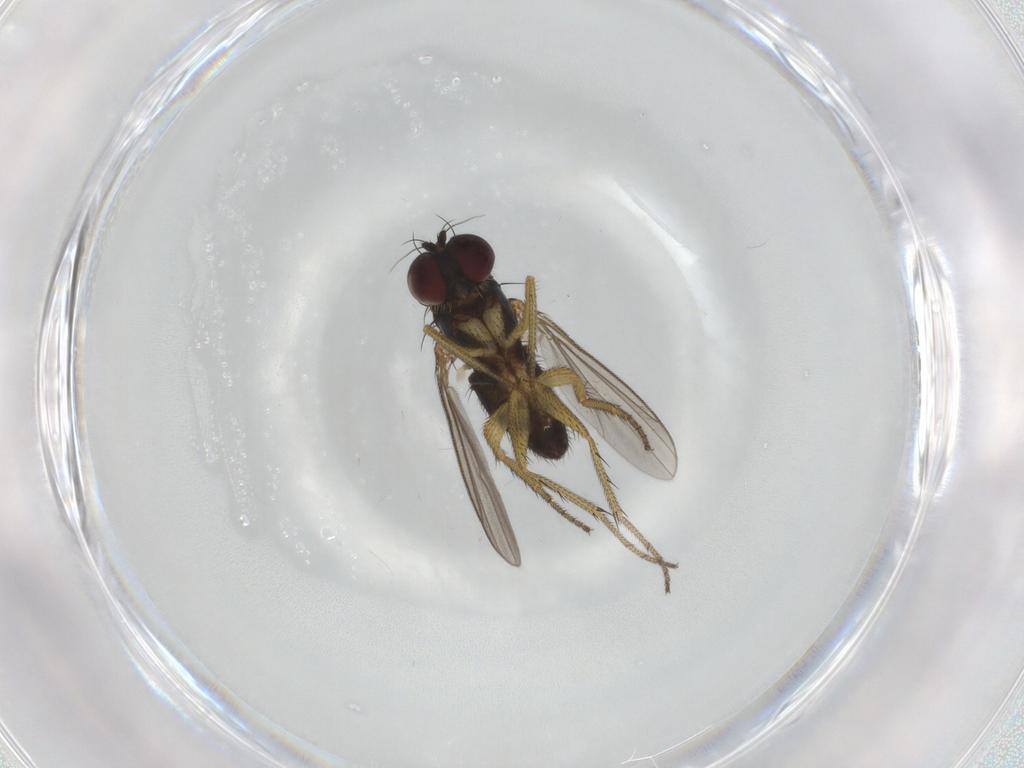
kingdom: Animalia
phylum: Arthropoda
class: Insecta
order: Diptera
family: Dolichopodidae
